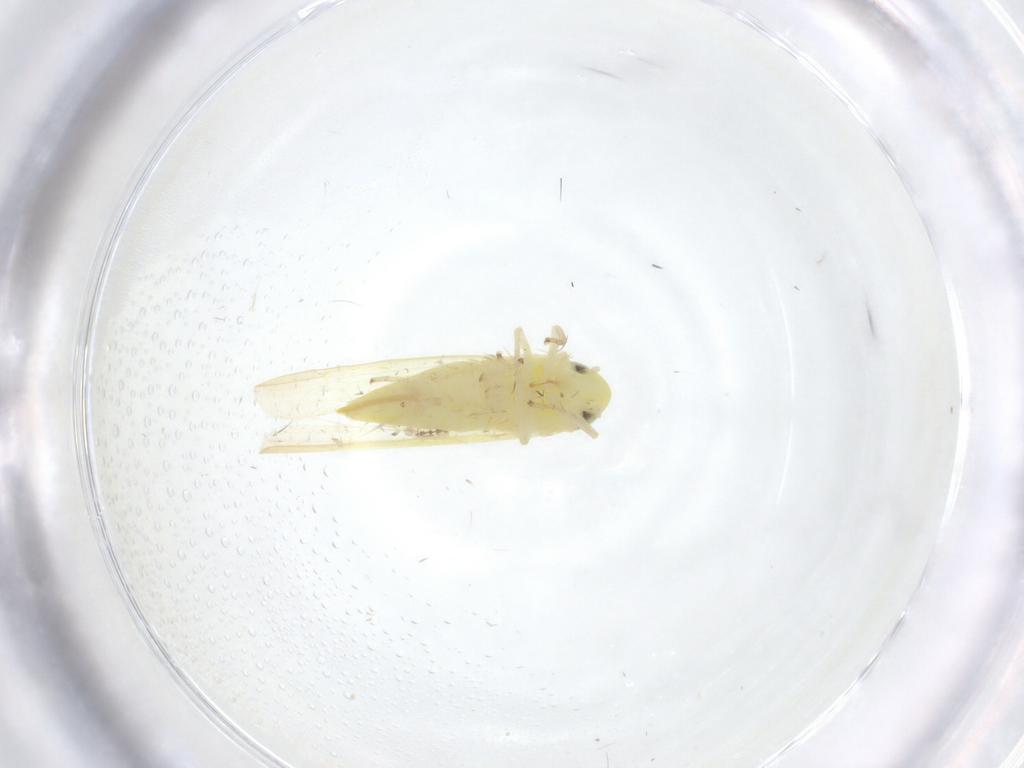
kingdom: Animalia
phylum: Arthropoda
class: Insecta
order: Hemiptera
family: Cicadellidae
